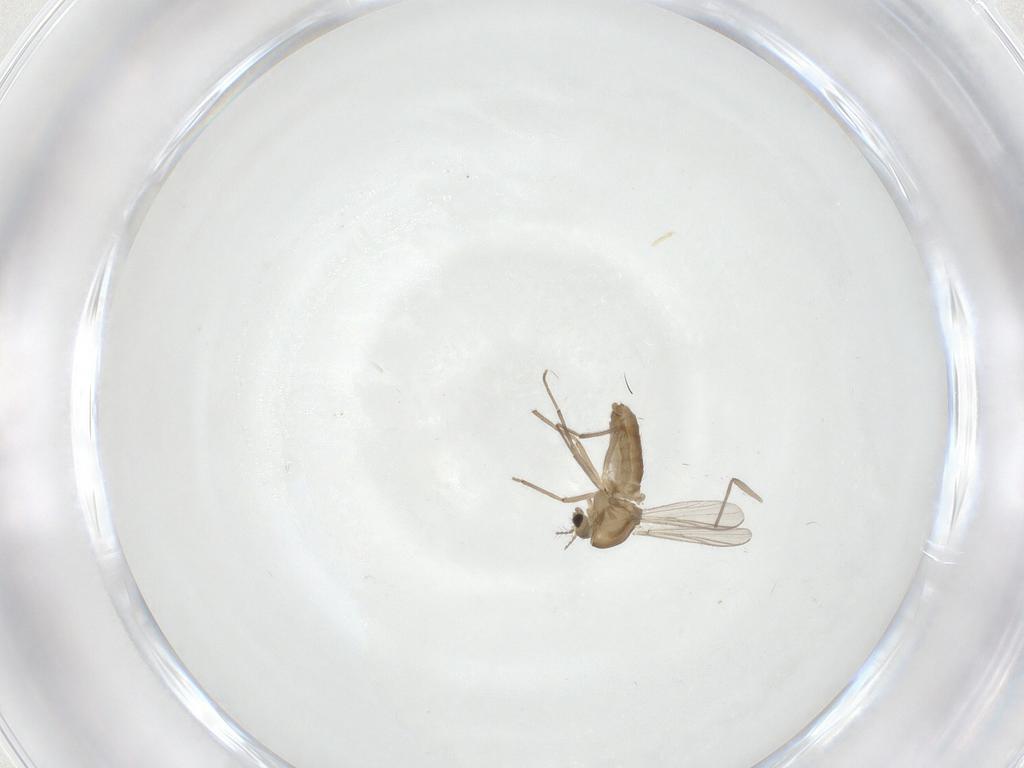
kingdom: Animalia
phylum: Arthropoda
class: Insecta
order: Diptera
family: Chironomidae
